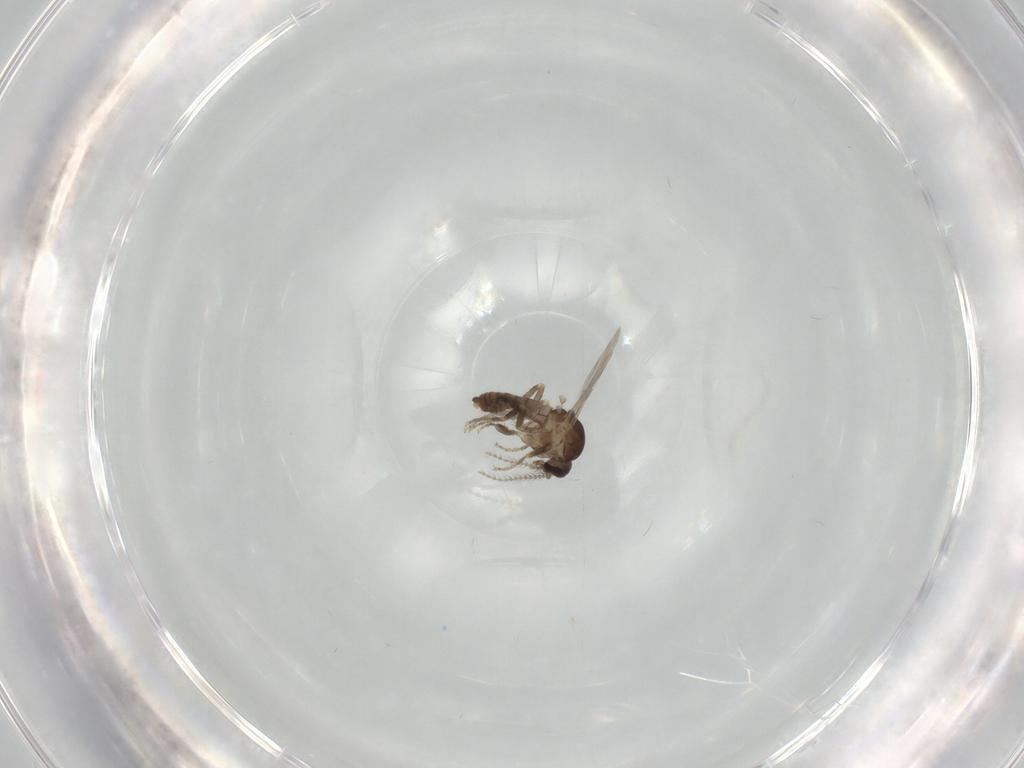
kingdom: Animalia
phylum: Arthropoda
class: Insecta
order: Diptera
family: Ceratopogonidae
